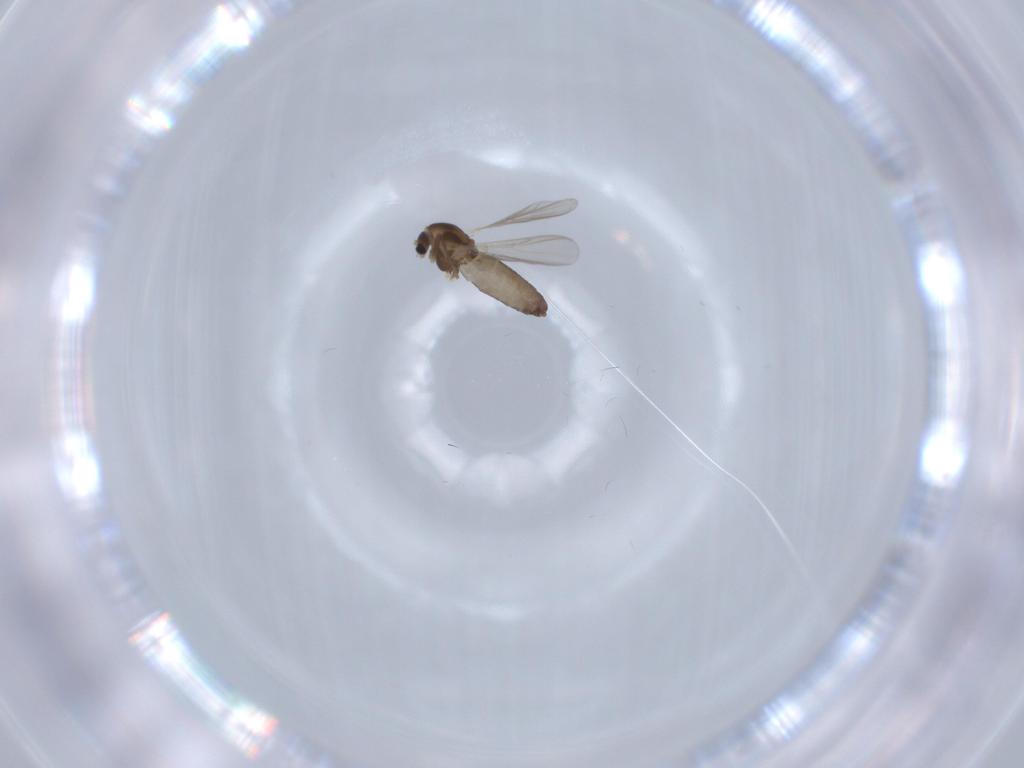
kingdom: Animalia
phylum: Arthropoda
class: Insecta
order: Diptera
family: Chironomidae
